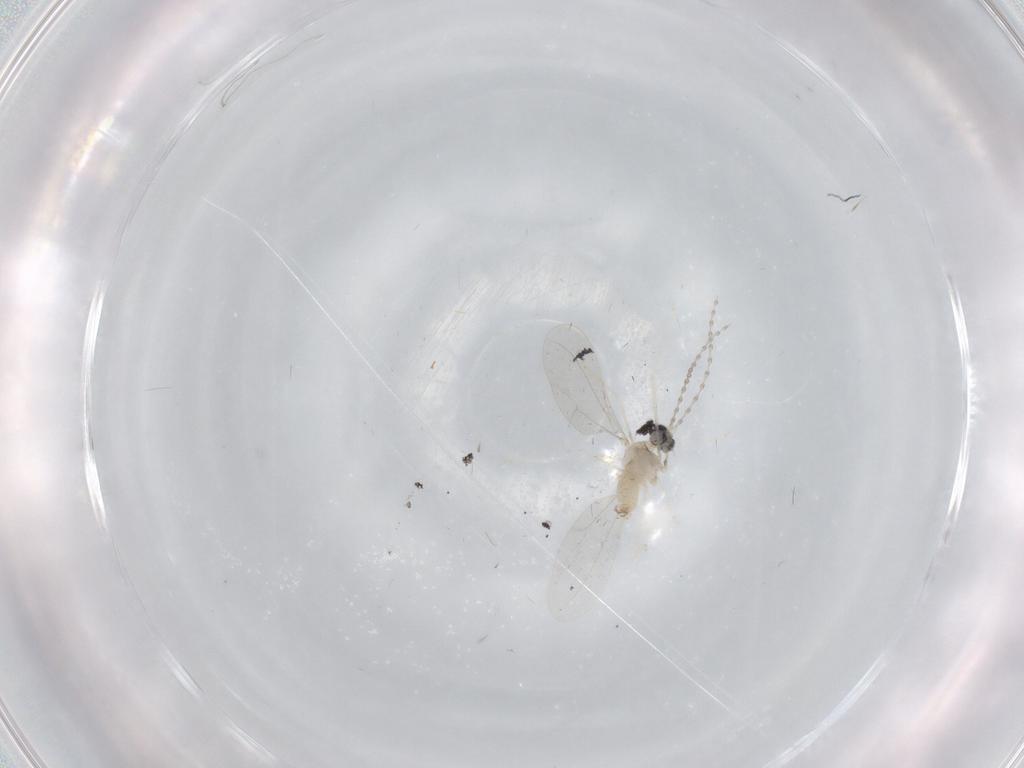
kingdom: Animalia
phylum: Arthropoda
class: Insecta
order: Diptera
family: Cecidomyiidae
